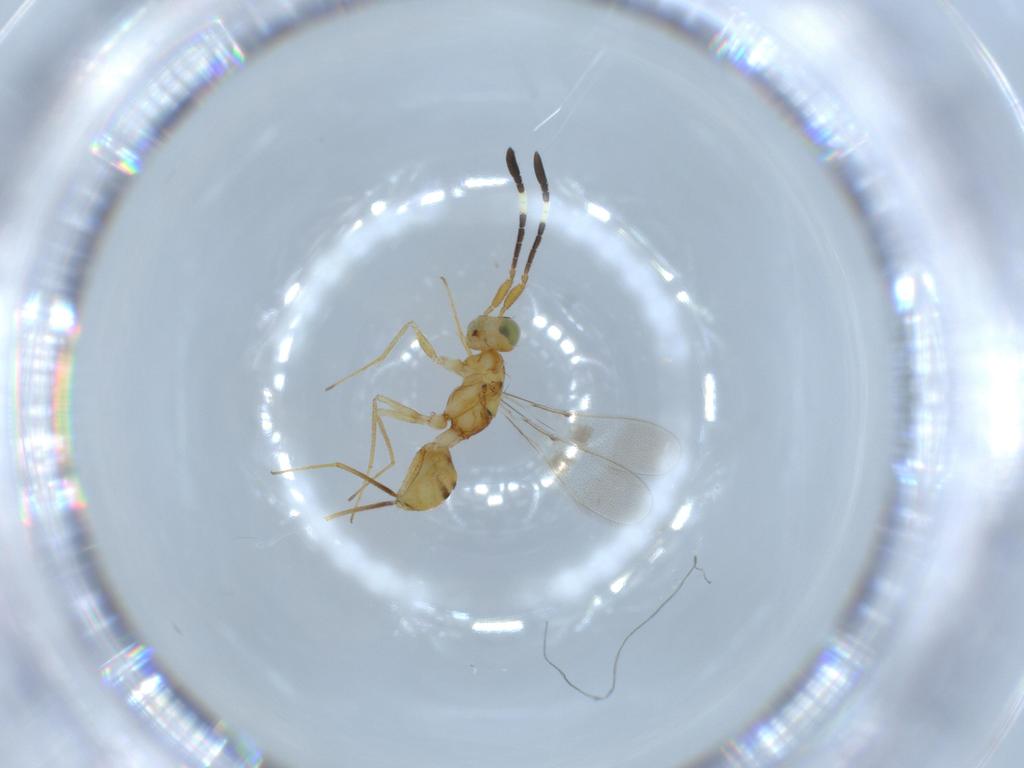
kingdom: Animalia
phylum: Arthropoda
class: Insecta
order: Hymenoptera
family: Mymaridae
